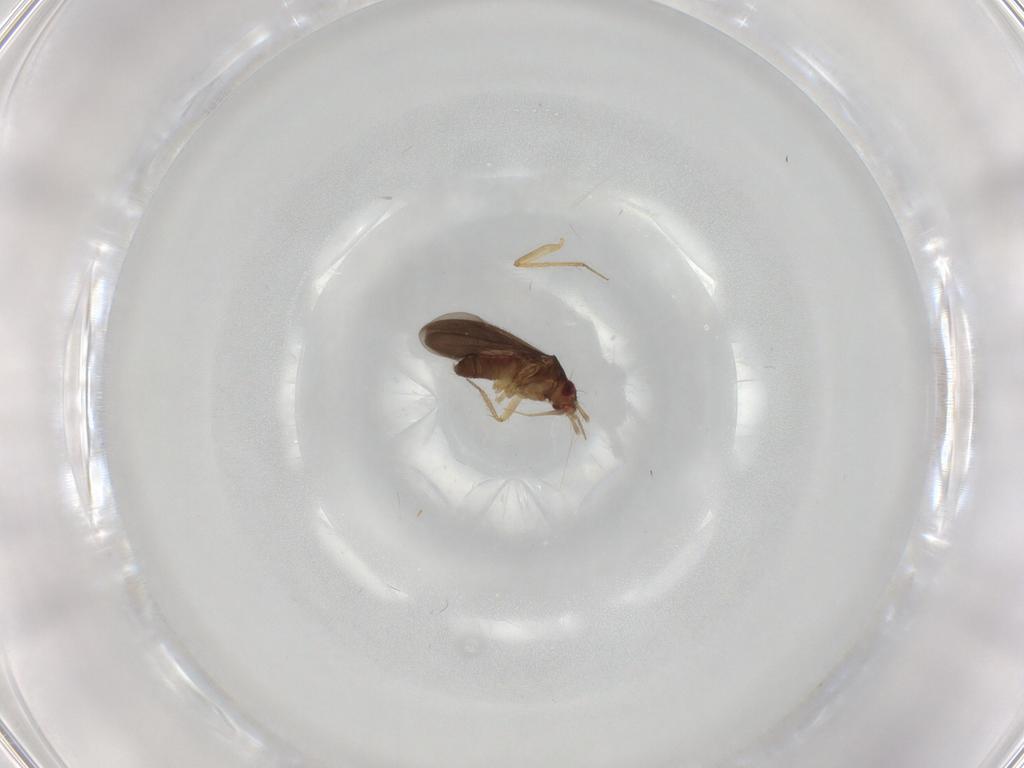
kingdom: Animalia
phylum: Arthropoda
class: Insecta
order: Hemiptera
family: Ceratocombidae
